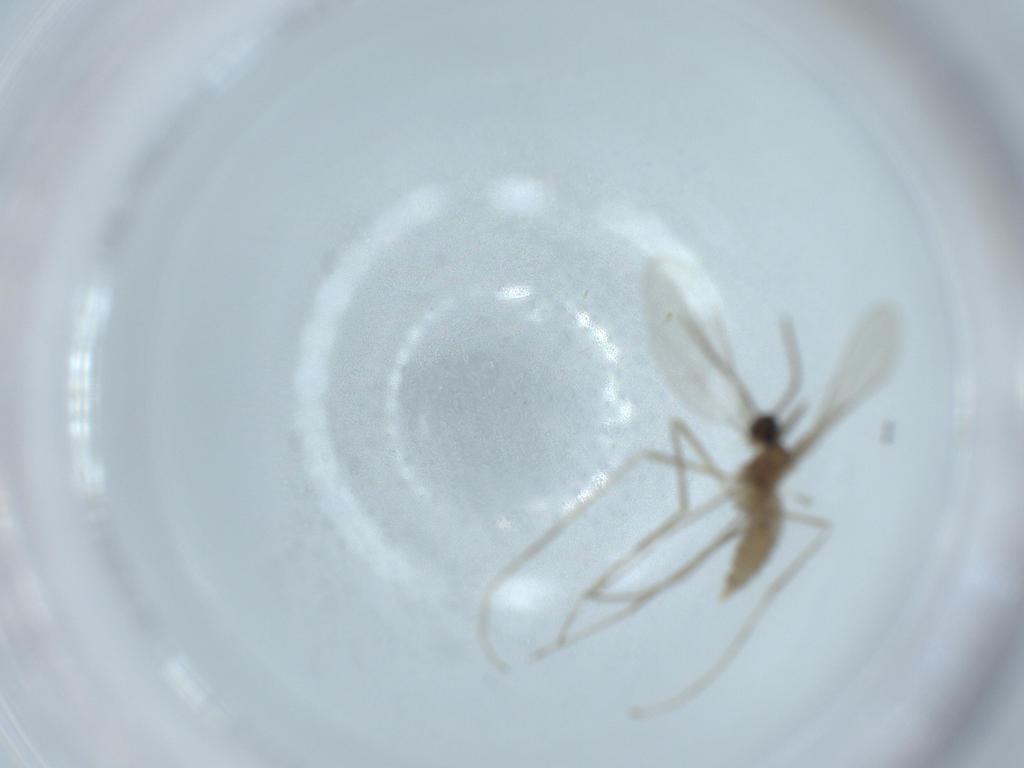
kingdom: Animalia
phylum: Arthropoda
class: Insecta
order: Diptera
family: Cecidomyiidae
